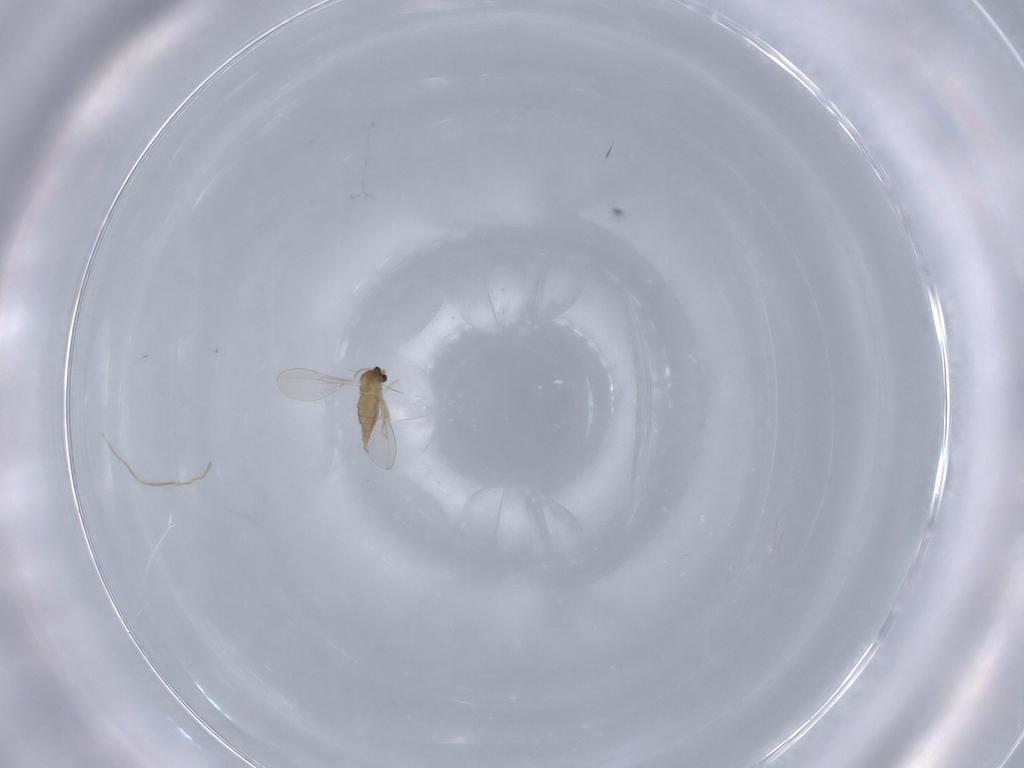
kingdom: Animalia
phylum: Arthropoda
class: Insecta
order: Diptera
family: Cecidomyiidae
